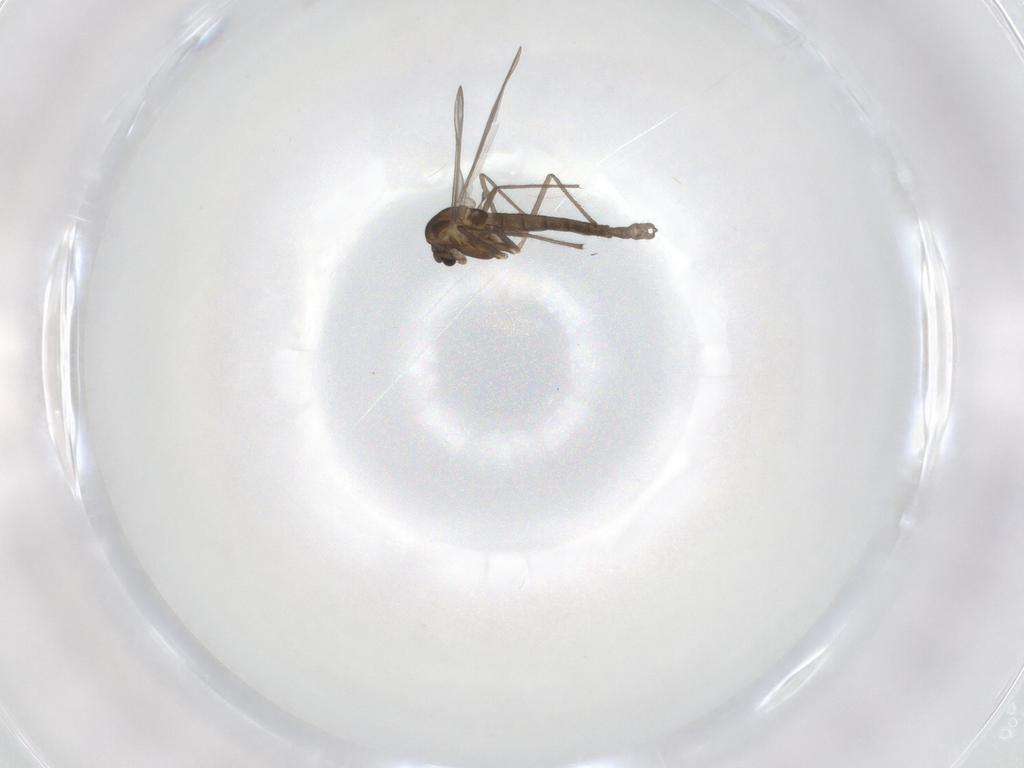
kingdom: Animalia
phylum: Arthropoda
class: Insecta
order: Diptera
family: Chironomidae
